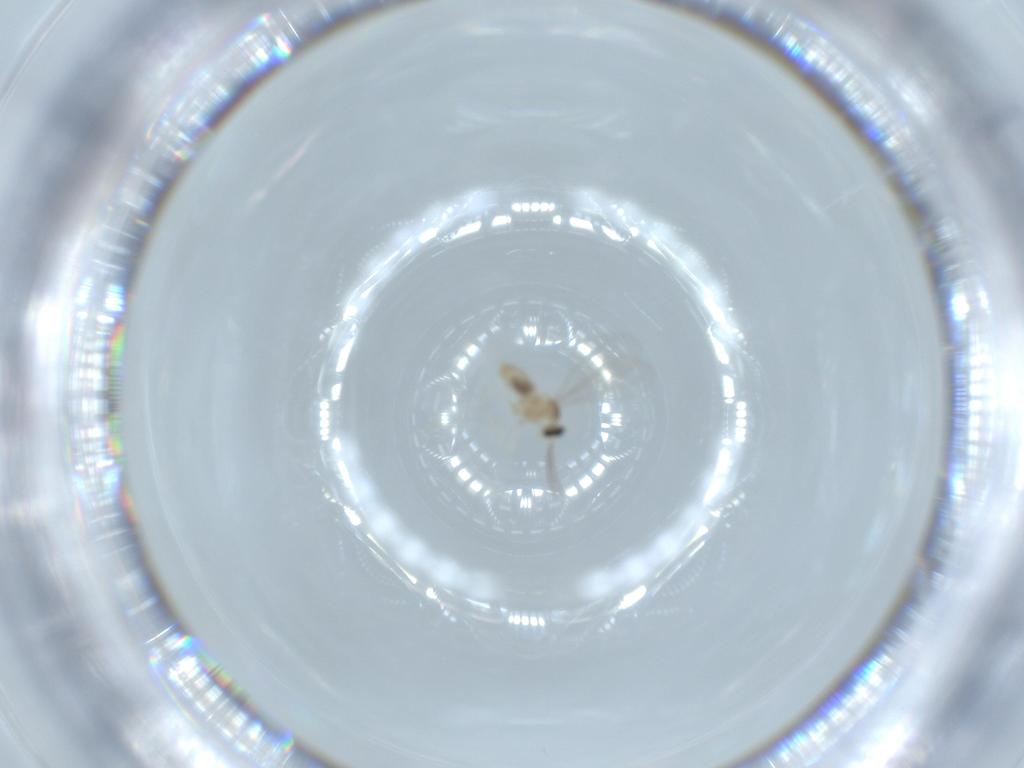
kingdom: Animalia
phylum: Arthropoda
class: Insecta
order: Diptera
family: Cecidomyiidae
